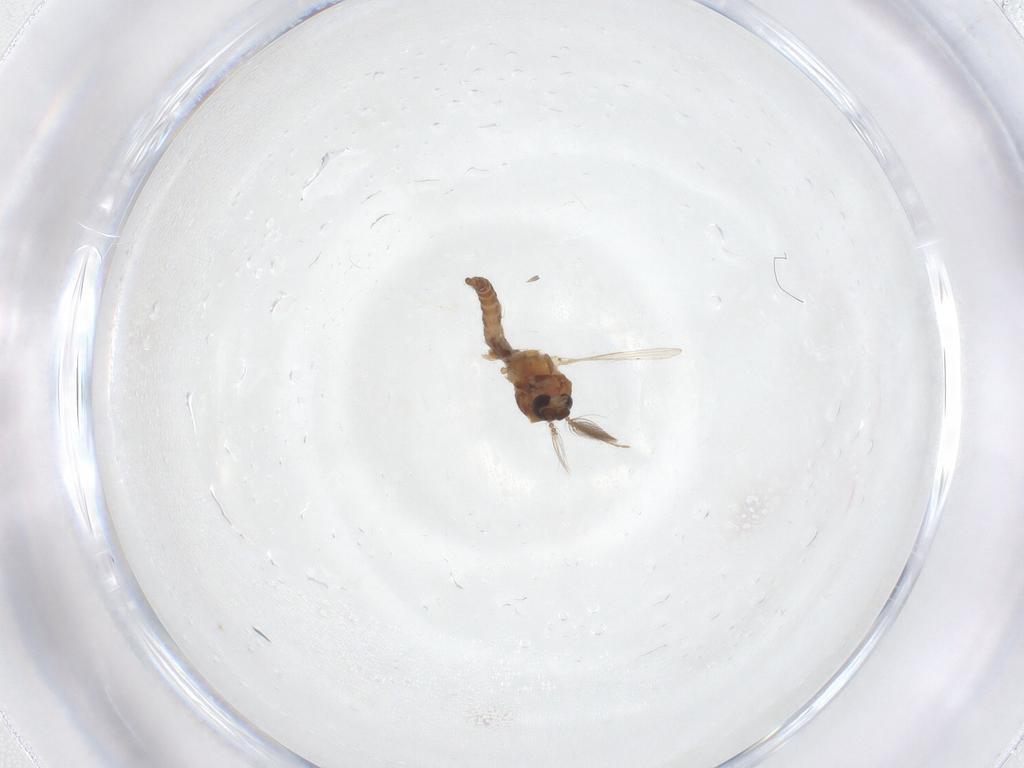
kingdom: Animalia
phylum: Arthropoda
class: Insecta
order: Diptera
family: Ceratopogonidae
